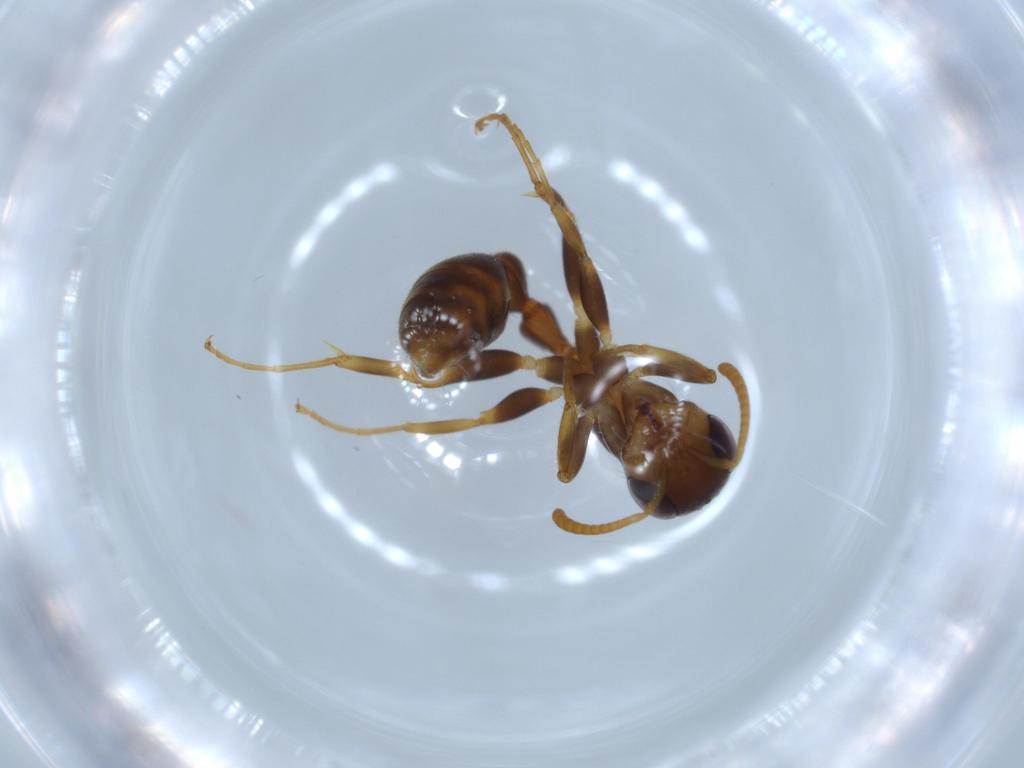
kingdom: Animalia
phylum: Arthropoda
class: Insecta
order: Hymenoptera
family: Formicidae
